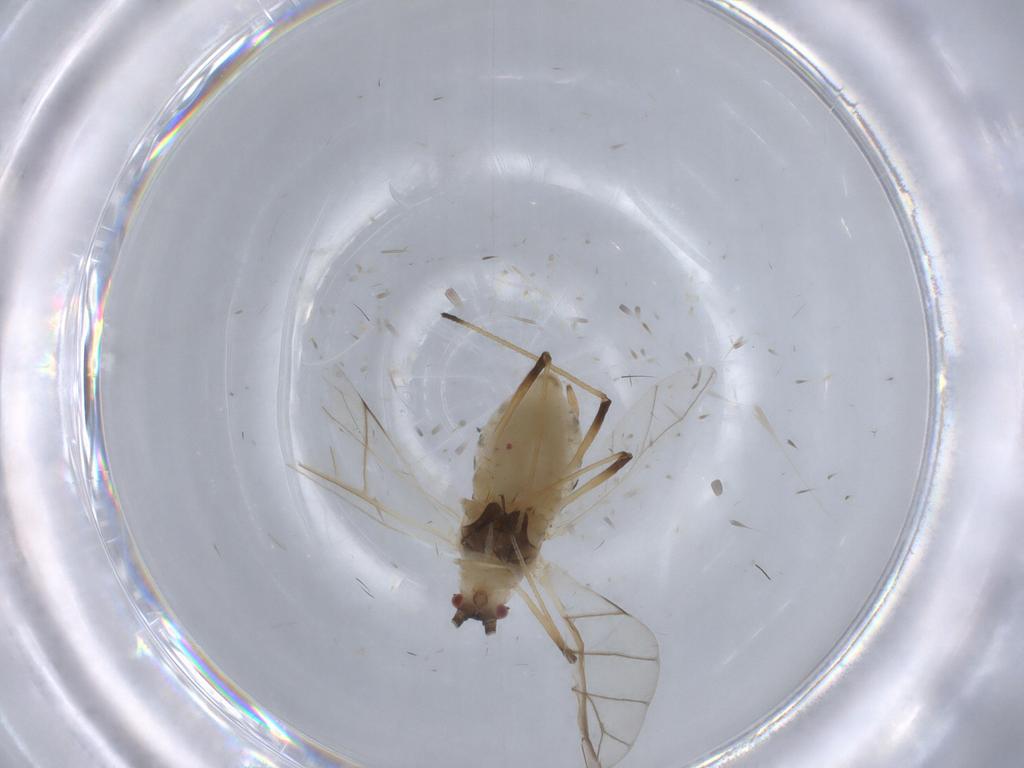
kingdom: Animalia
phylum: Arthropoda
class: Insecta
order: Hemiptera
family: Aphididae
